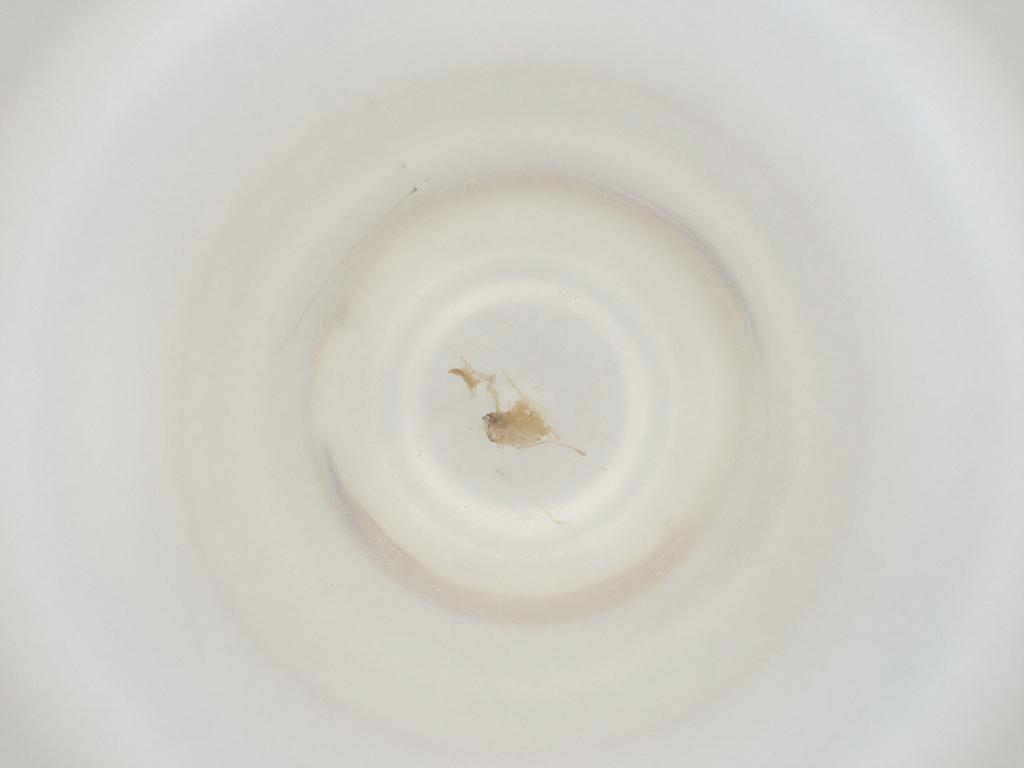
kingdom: Animalia
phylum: Arthropoda
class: Insecta
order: Diptera
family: Cecidomyiidae
